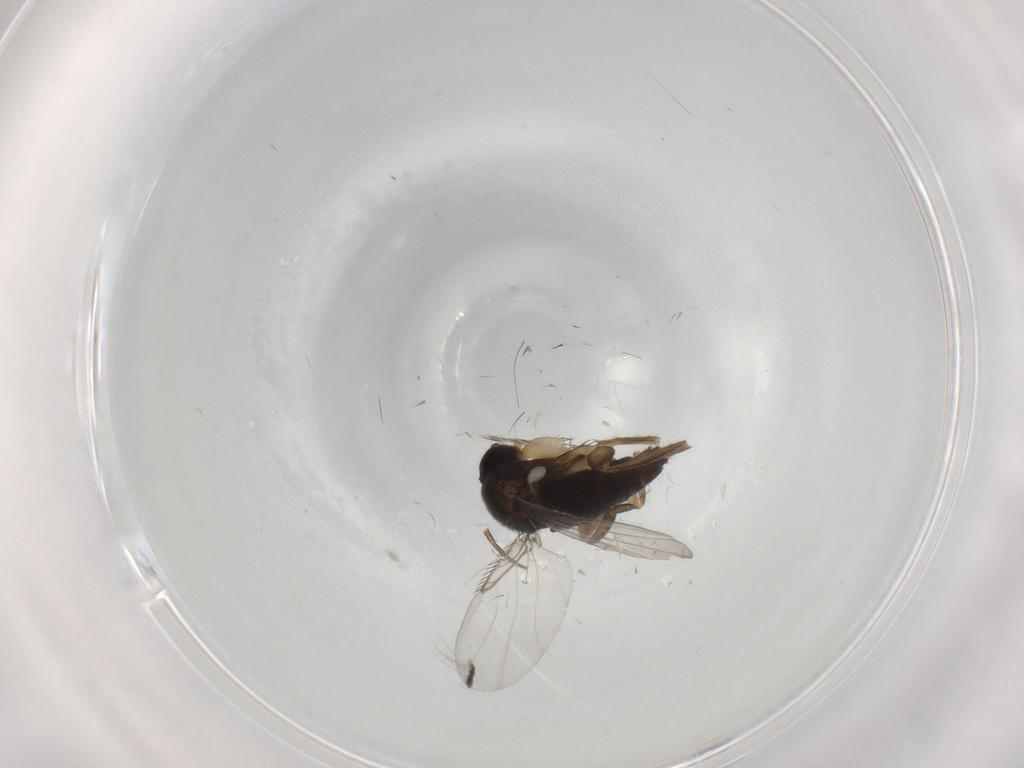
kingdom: Animalia
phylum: Arthropoda
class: Insecta
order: Diptera
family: Phoridae
